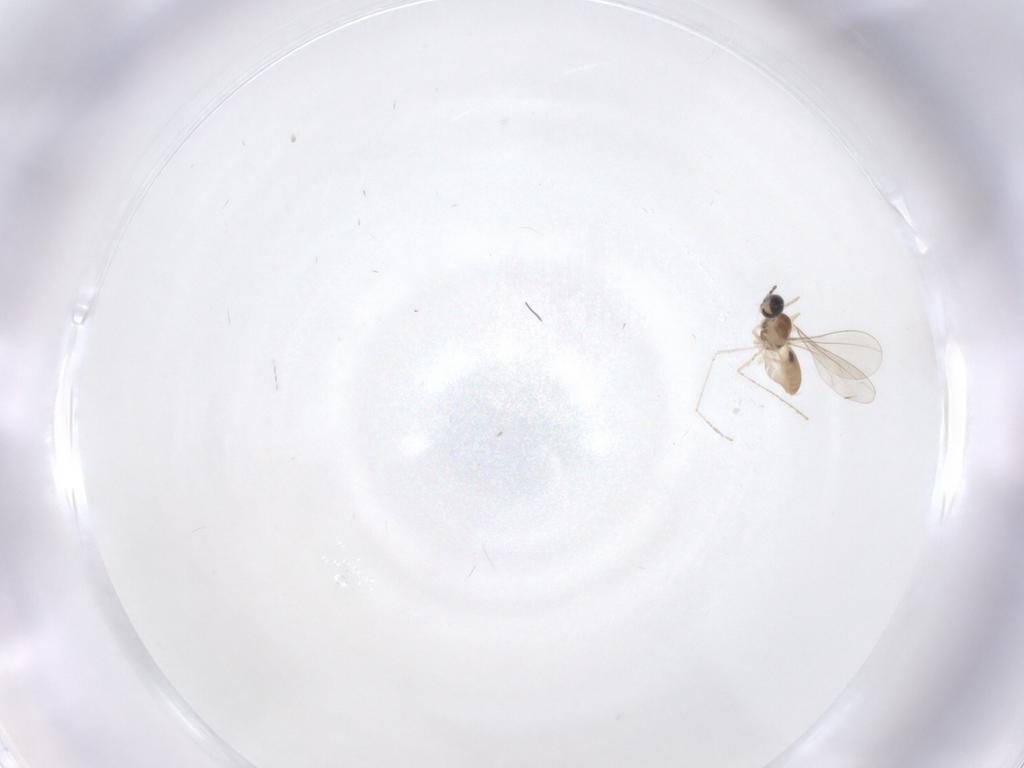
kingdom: Animalia
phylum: Arthropoda
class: Insecta
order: Diptera
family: Cecidomyiidae
